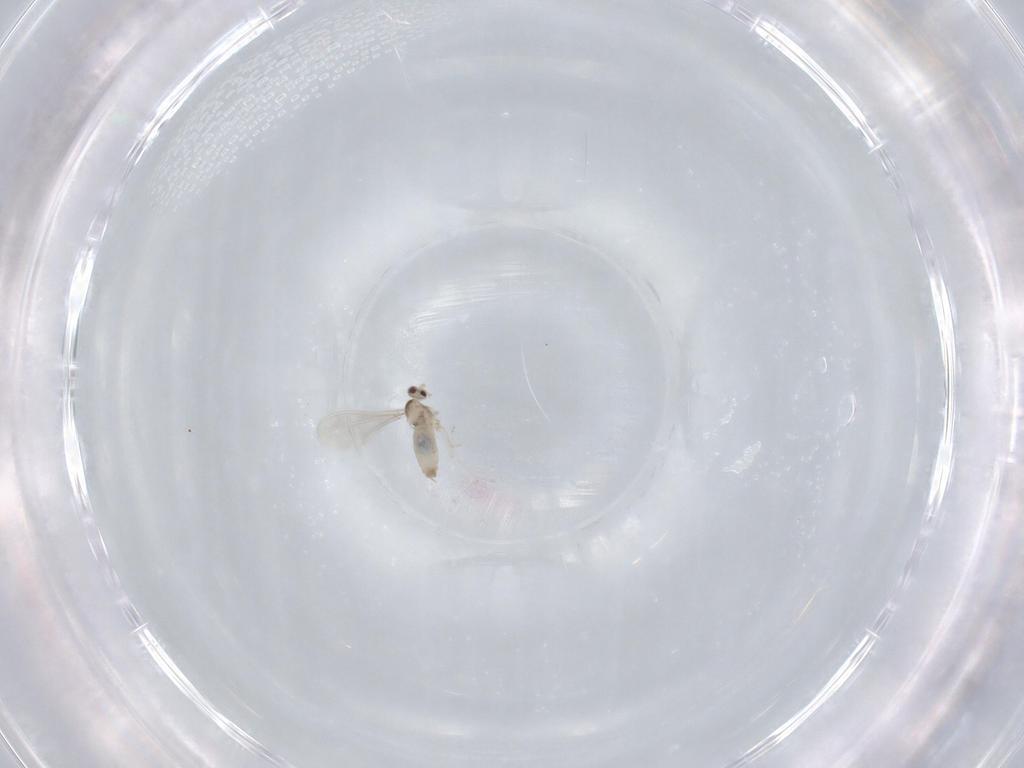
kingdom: Animalia
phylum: Arthropoda
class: Insecta
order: Diptera
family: Cecidomyiidae
